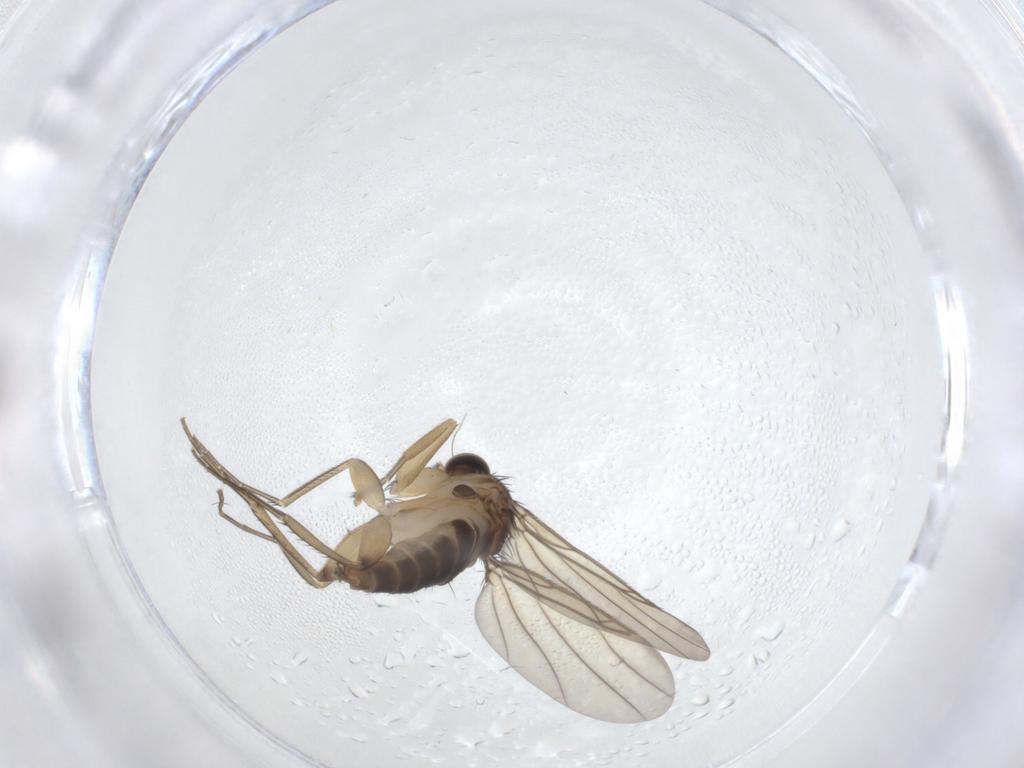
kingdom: Animalia
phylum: Arthropoda
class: Insecta
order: Diptera
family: Phoridae
